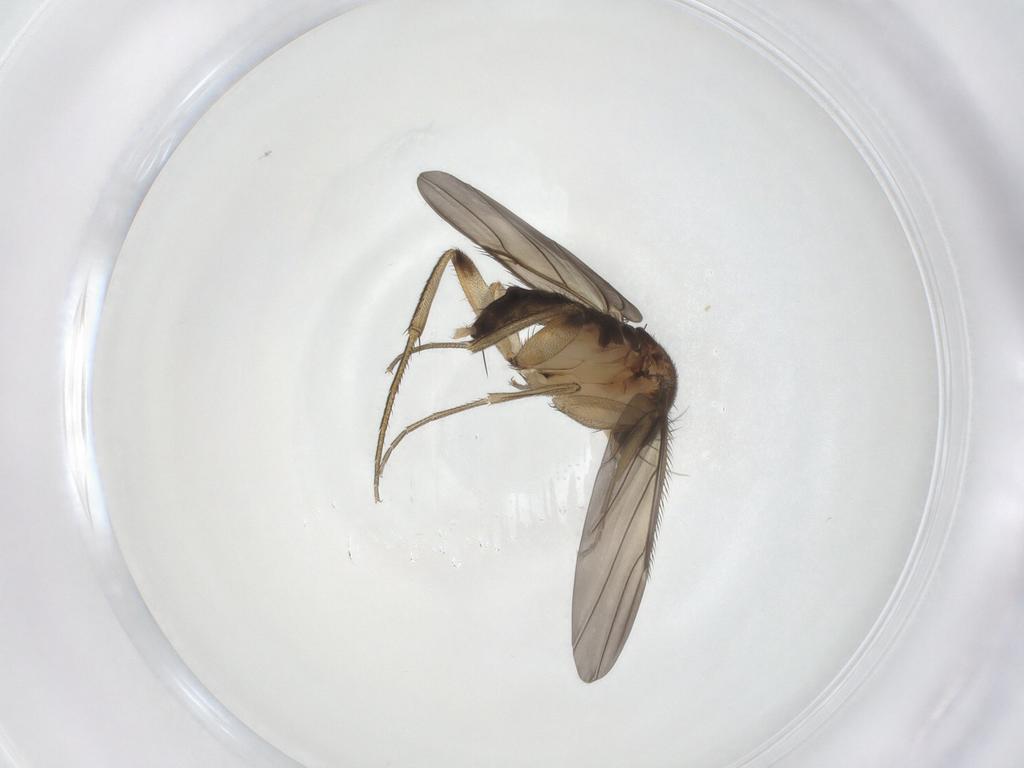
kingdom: Animalia
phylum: Arthropoda
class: Insecta
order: Diptera
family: Phoridae
